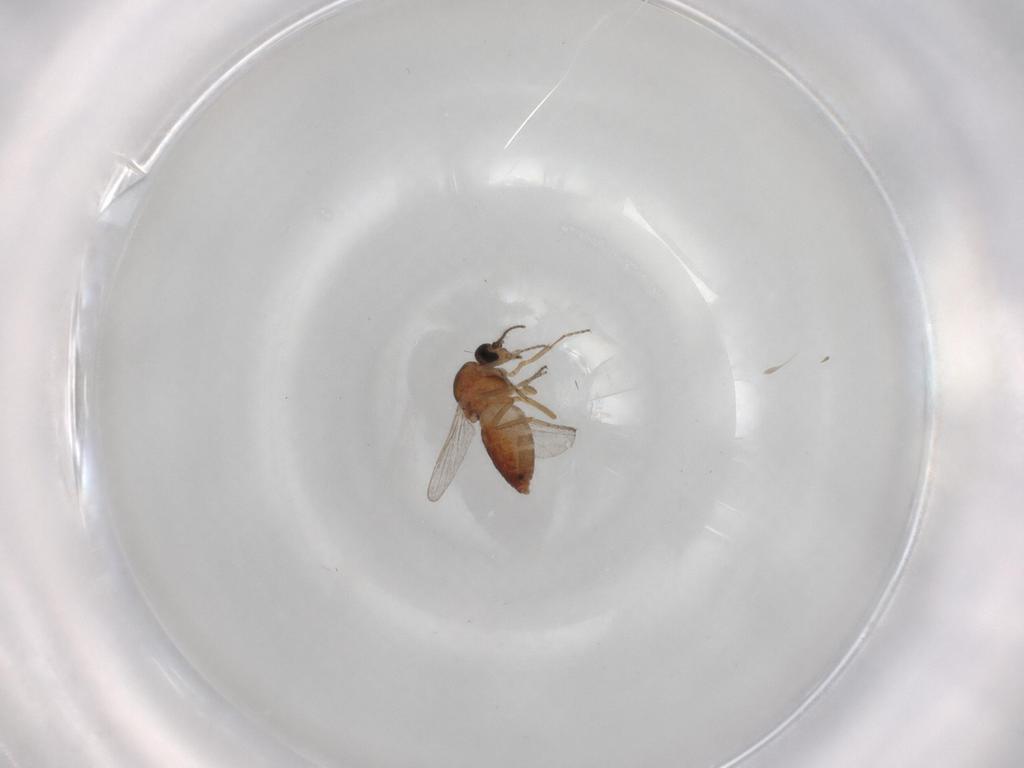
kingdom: Animalia
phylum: Arthropoda
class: Insecta
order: Diptera
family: Ceratopogonidae
